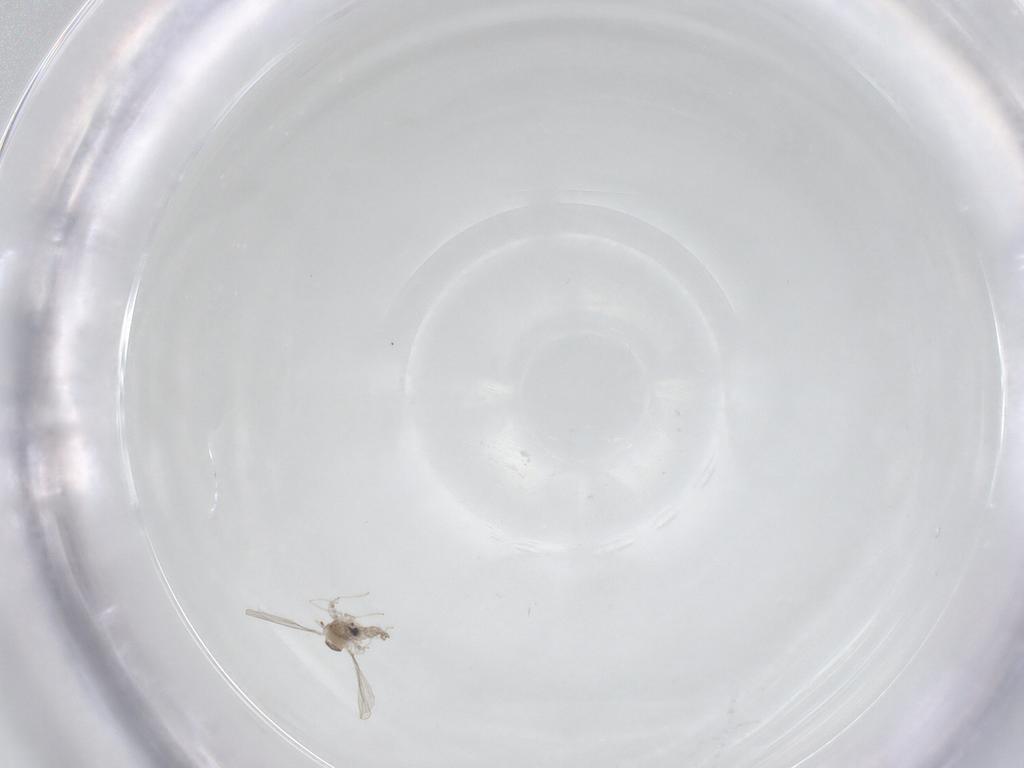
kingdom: Animalia
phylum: Arthropoda
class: Insecta
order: Diptera
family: Cecidomyiidae
